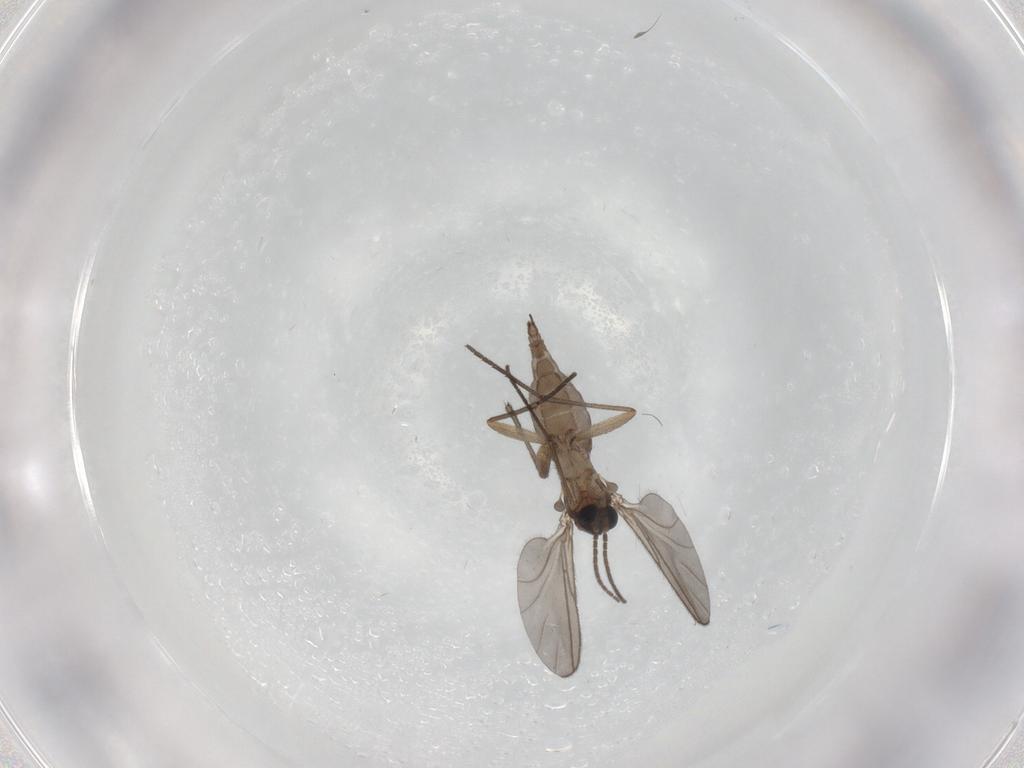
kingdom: Animalia
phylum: Arthropoda
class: Insecta
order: Diptera
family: Sciaridae
